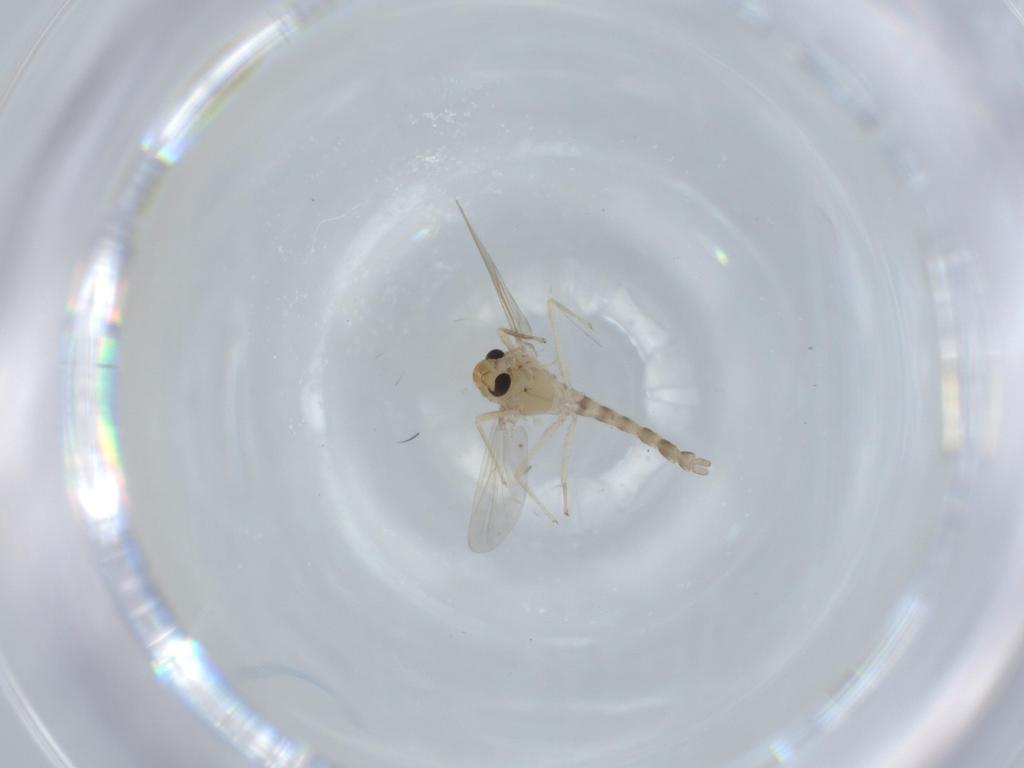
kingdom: Animalia
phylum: Arthropoda
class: Insecta
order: Diptera
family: Chironomidae
